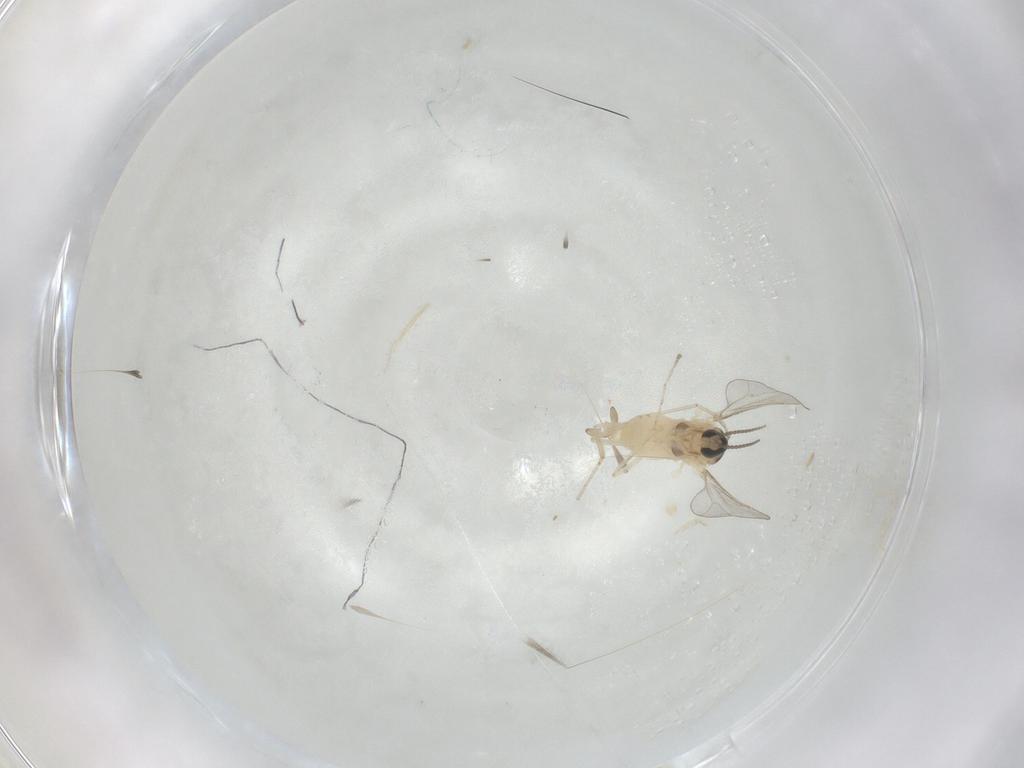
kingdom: Animalia
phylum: Arthropoda
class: Insecta
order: Diptera
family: Cecidomyiidae
